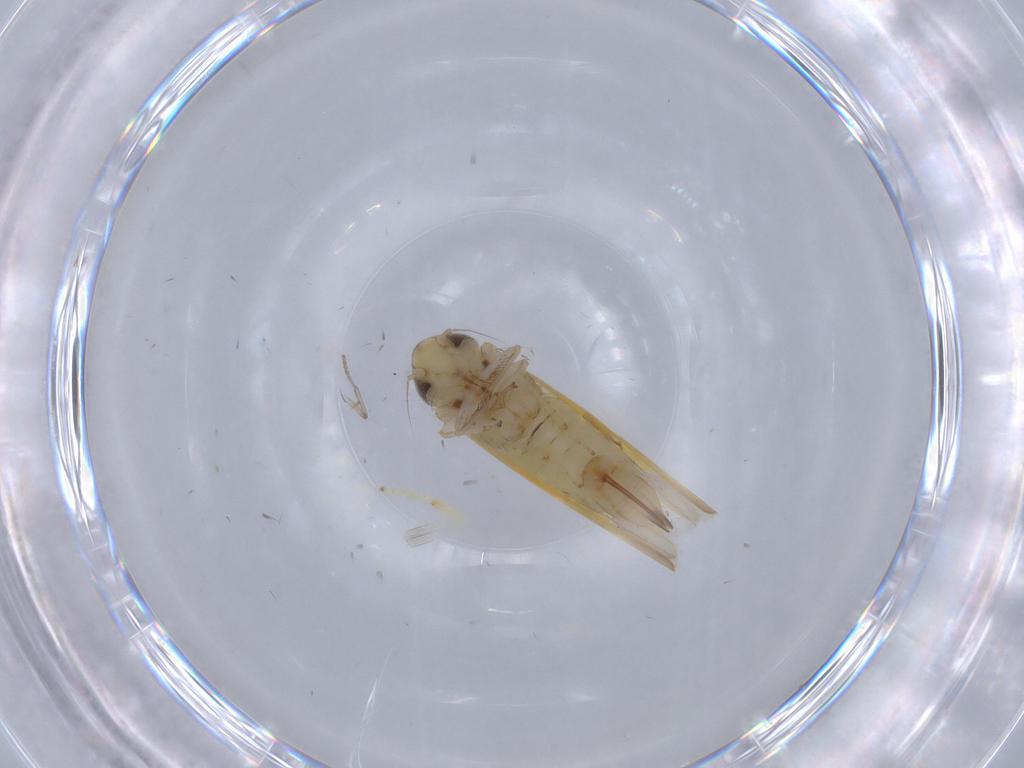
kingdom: Animalia
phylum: Arthropoda
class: Insecta
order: Hemiptera
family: Cicadellidae
